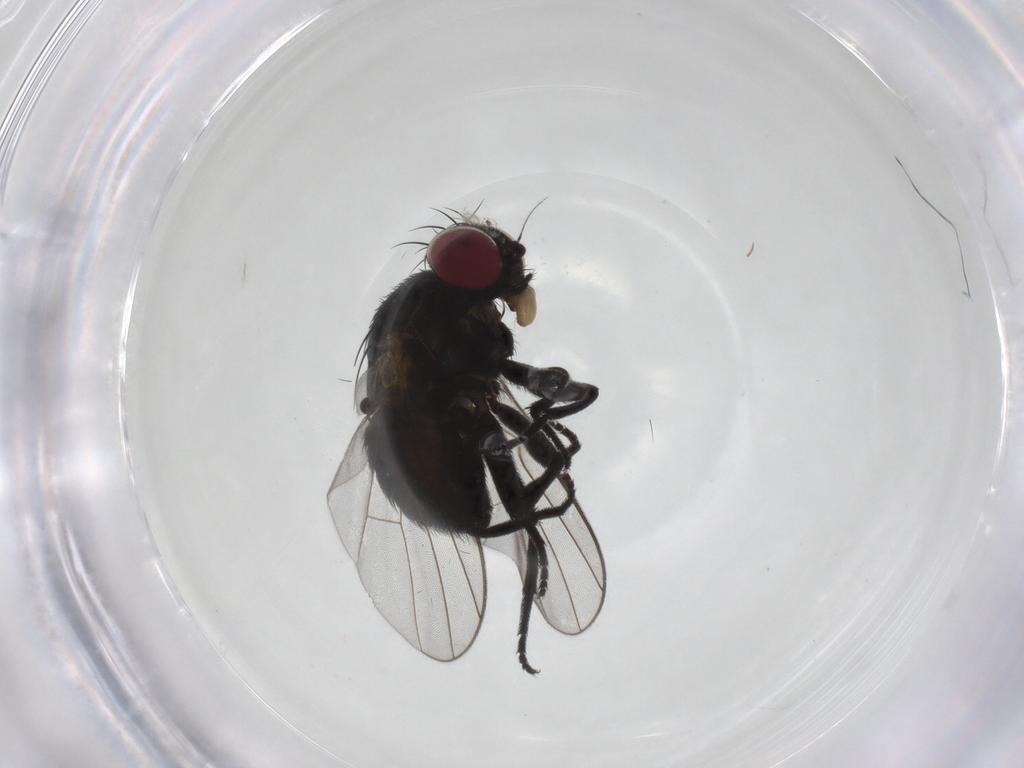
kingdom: Animalia
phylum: Arthropoda
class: Insecta
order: Diptera
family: Agromyzidae
